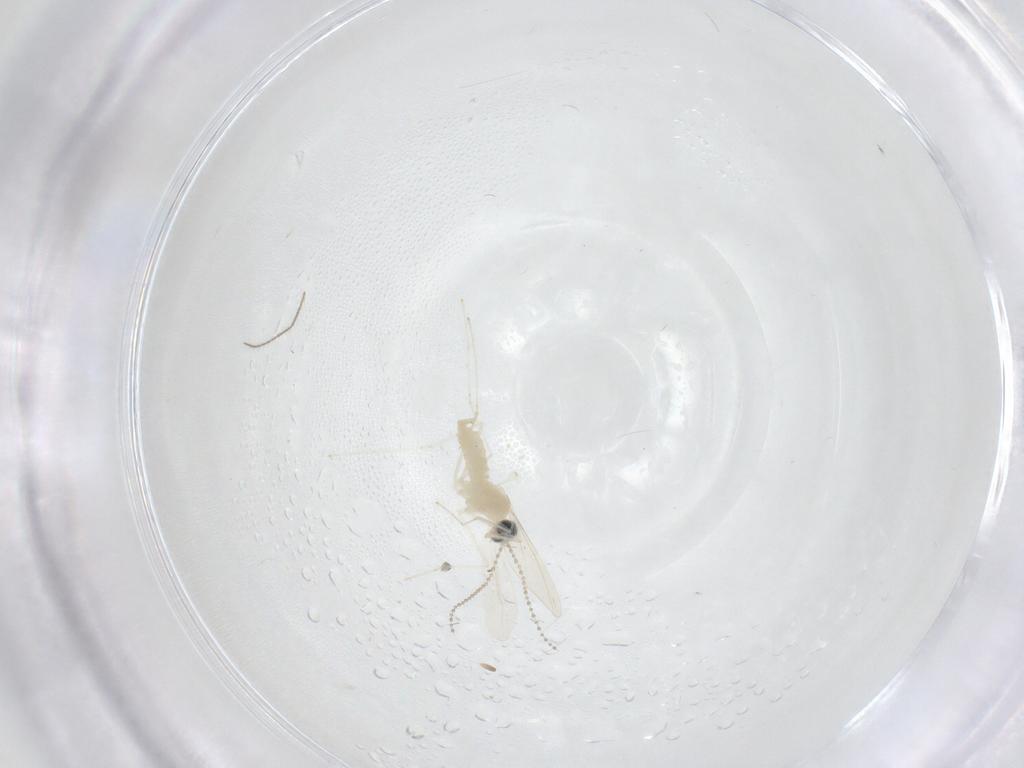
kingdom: Animalia
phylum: Arthropoda
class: Insecta
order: Diptera
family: Cecidomyiidae
